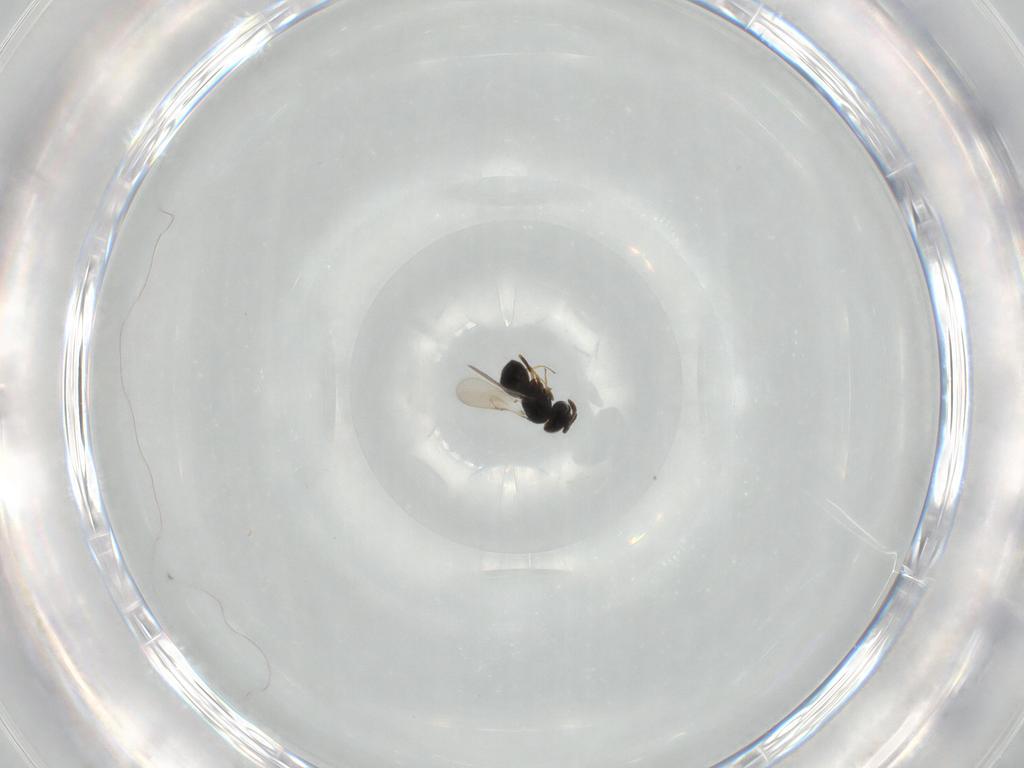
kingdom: Animalia
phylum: Arthropoda
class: Insecta
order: Hymenoptera
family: Scelionidae
